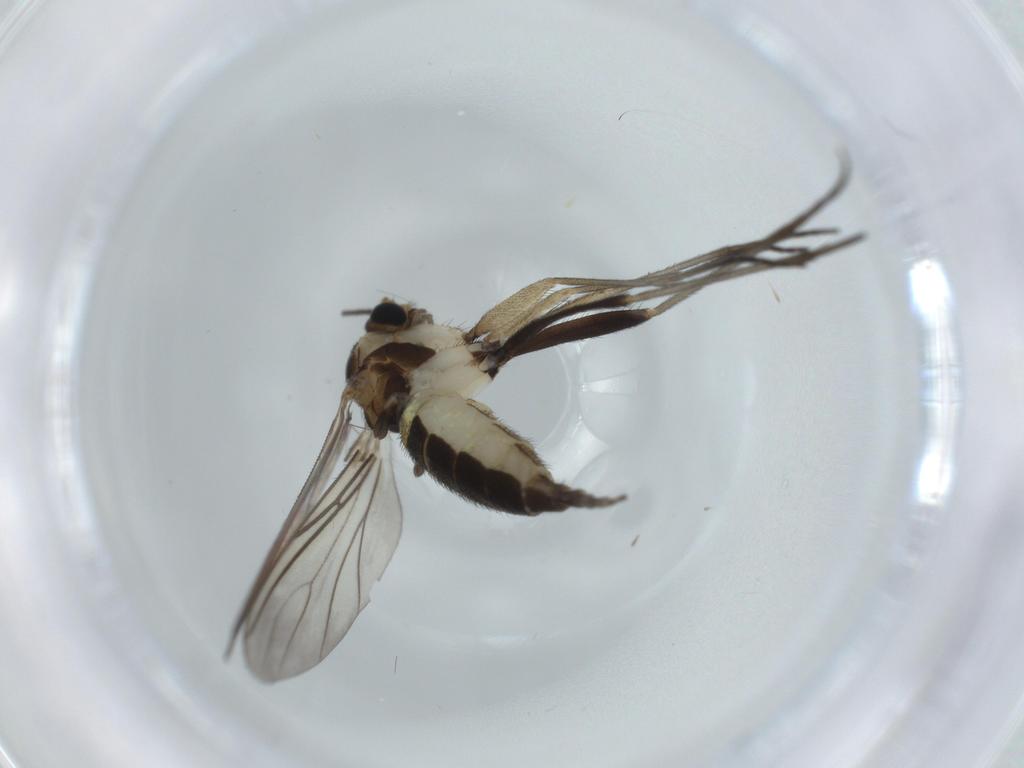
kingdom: Animalia
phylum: Arthropoda
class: Insecta
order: Diptera
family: Sciaridae
